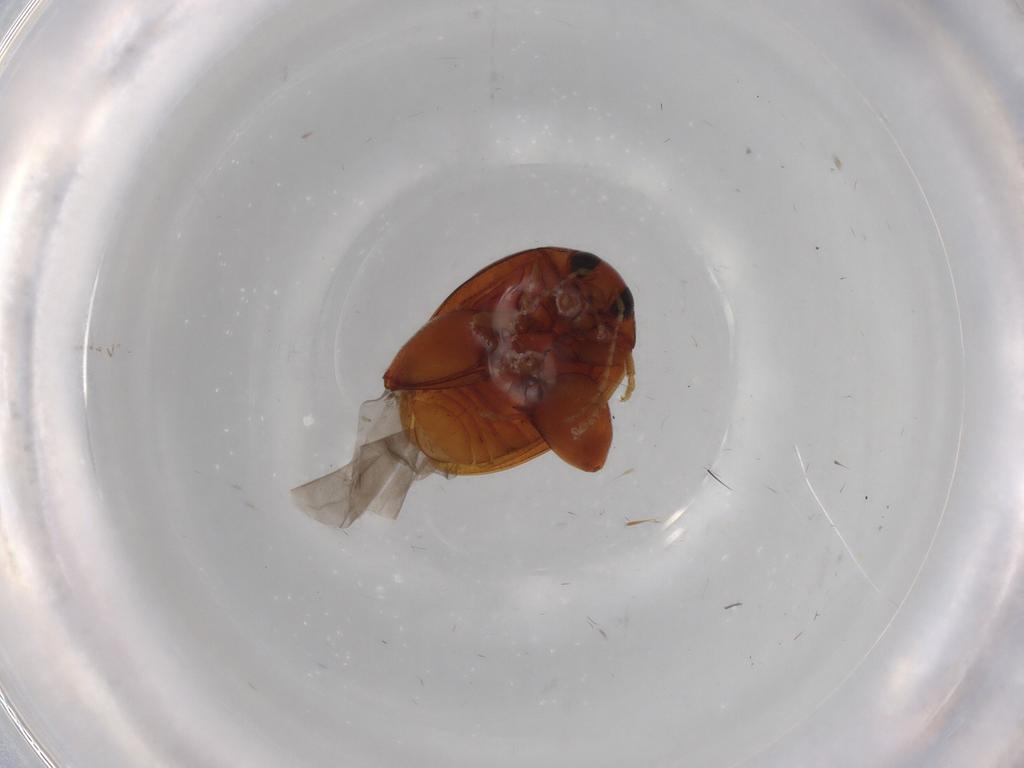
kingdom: Animalia
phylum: Arthropoda
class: Insecta
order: Coleoptera
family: Chrysomelidae
